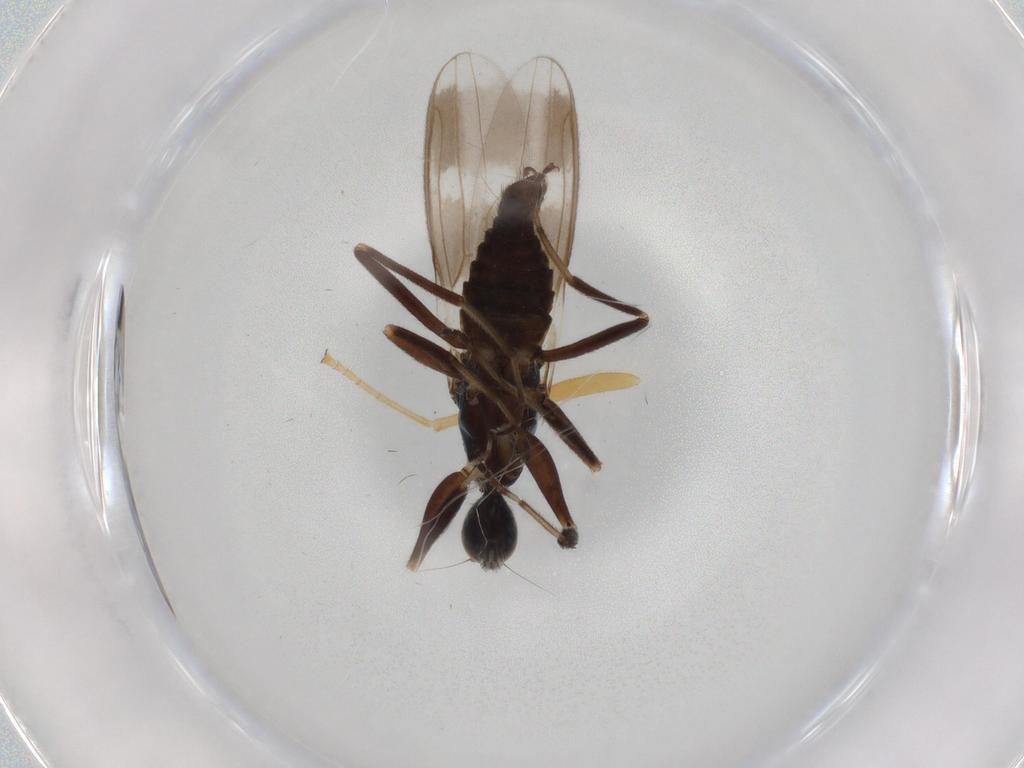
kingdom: Animalia
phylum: Arthropoda
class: Insecta
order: Diptera
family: Hybotidae
